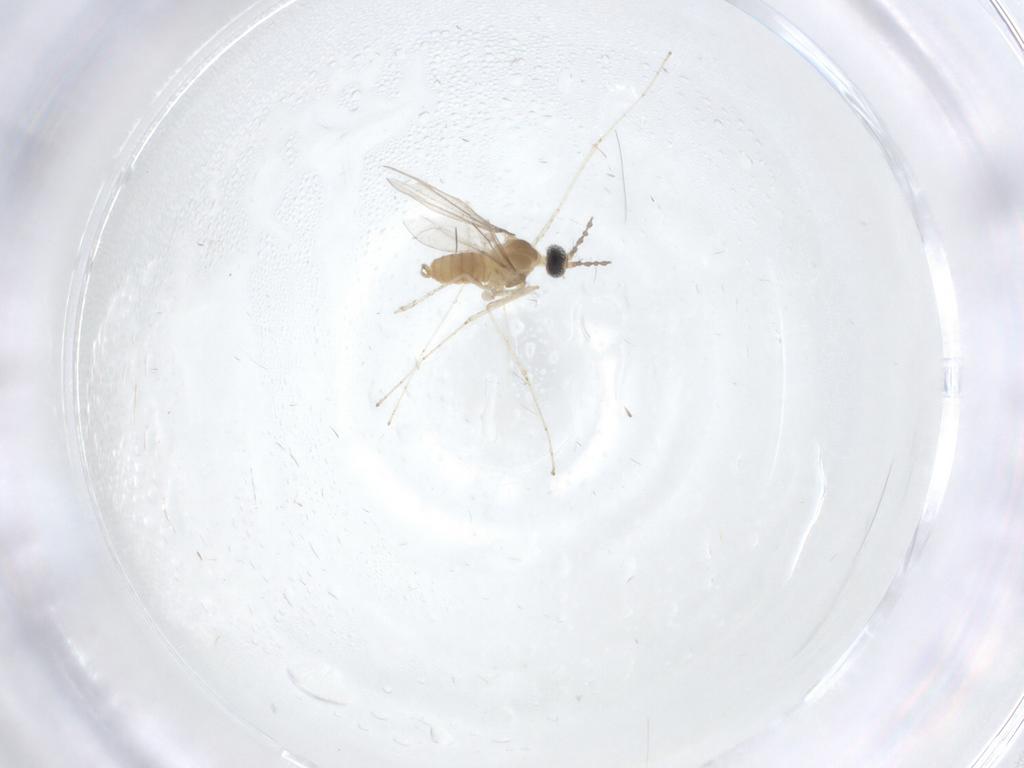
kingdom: Animalia
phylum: Arthropoda
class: Insecta
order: Diptera
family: Cecidomyiidae
